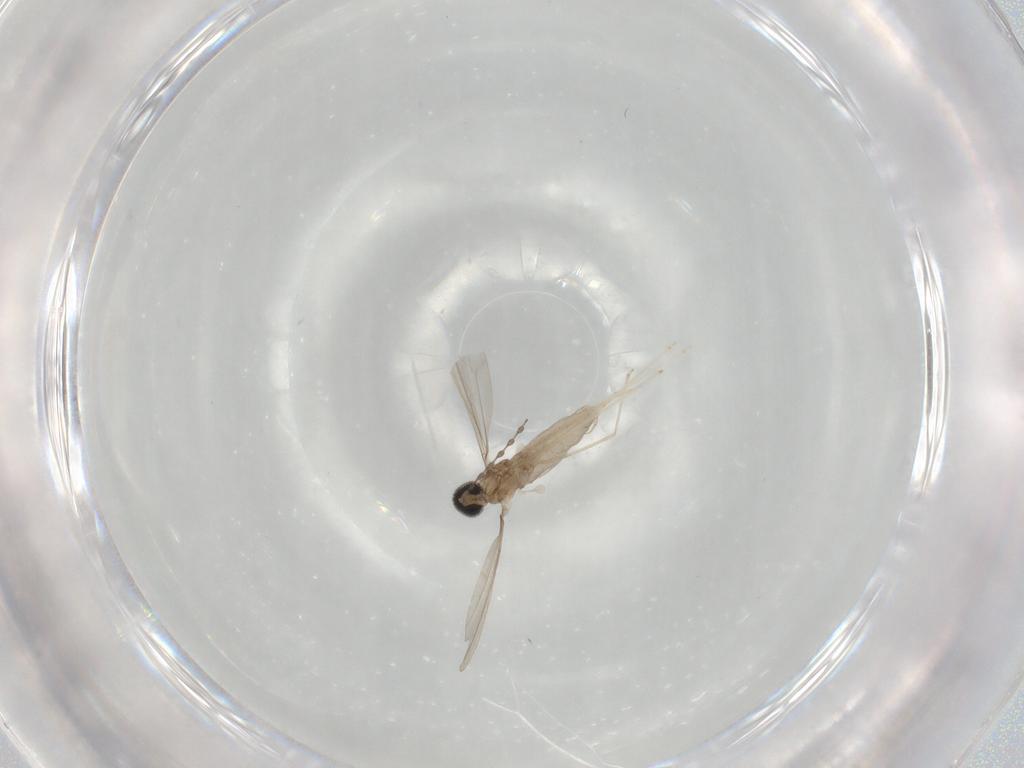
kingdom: Animalia
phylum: Arthropoda
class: Insecta
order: Diptera
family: Cecidomyiidae
